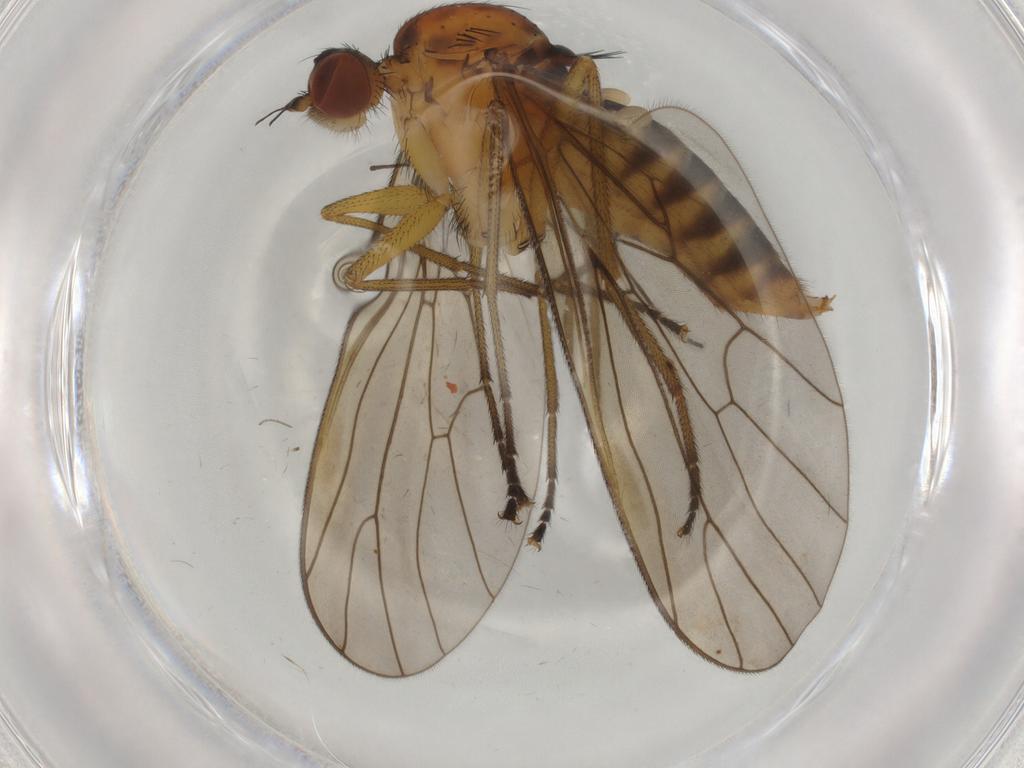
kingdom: Animalia
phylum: Arthropoda
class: Insecta
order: Diptera
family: Brachystomatidae
